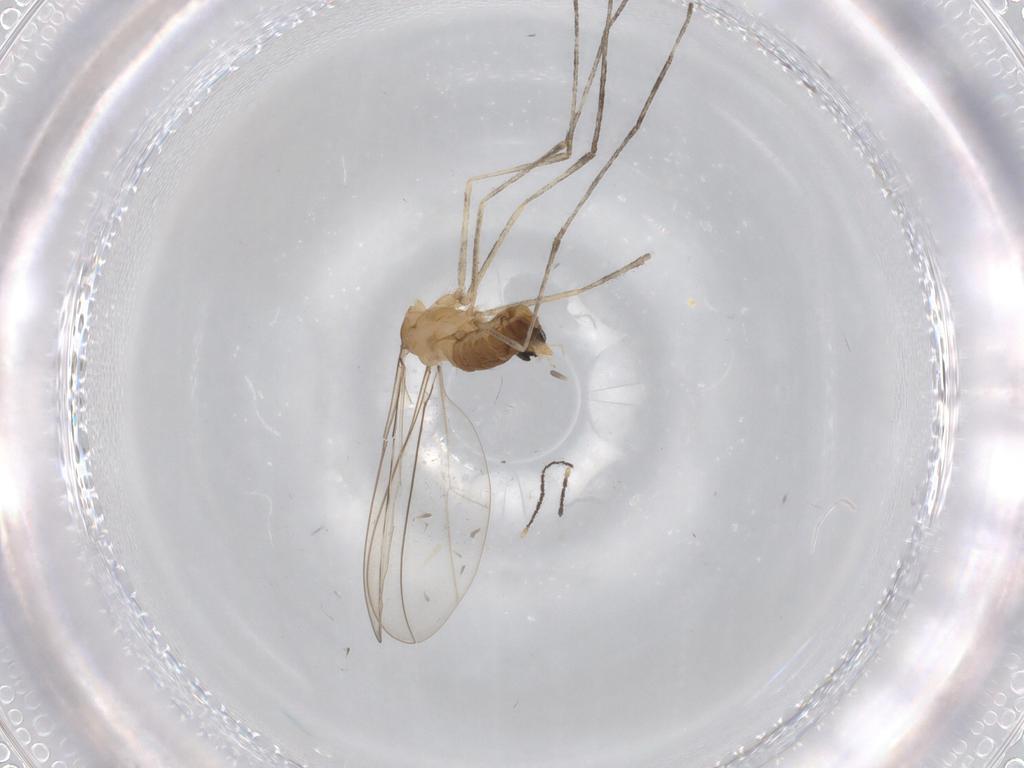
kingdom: Animalia
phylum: Arthropoda
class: Insecta
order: Diptera
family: Cecidomyiidae
